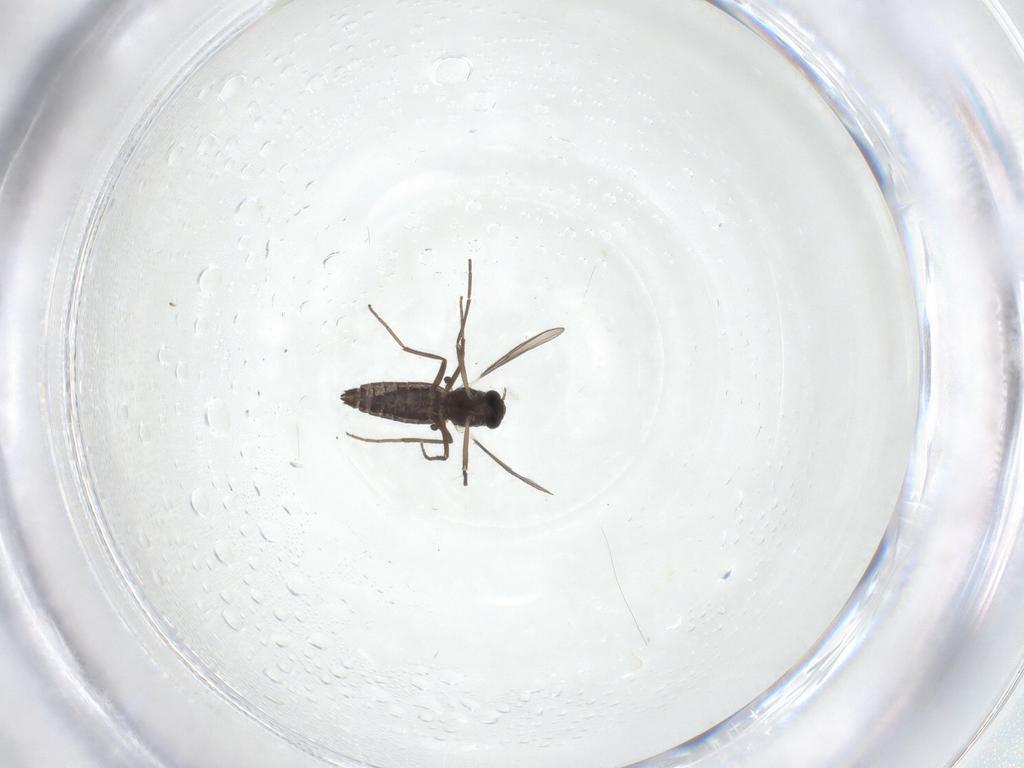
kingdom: Animalia
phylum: Arthropoda
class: Insecta
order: Diptera
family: Chironomidae
